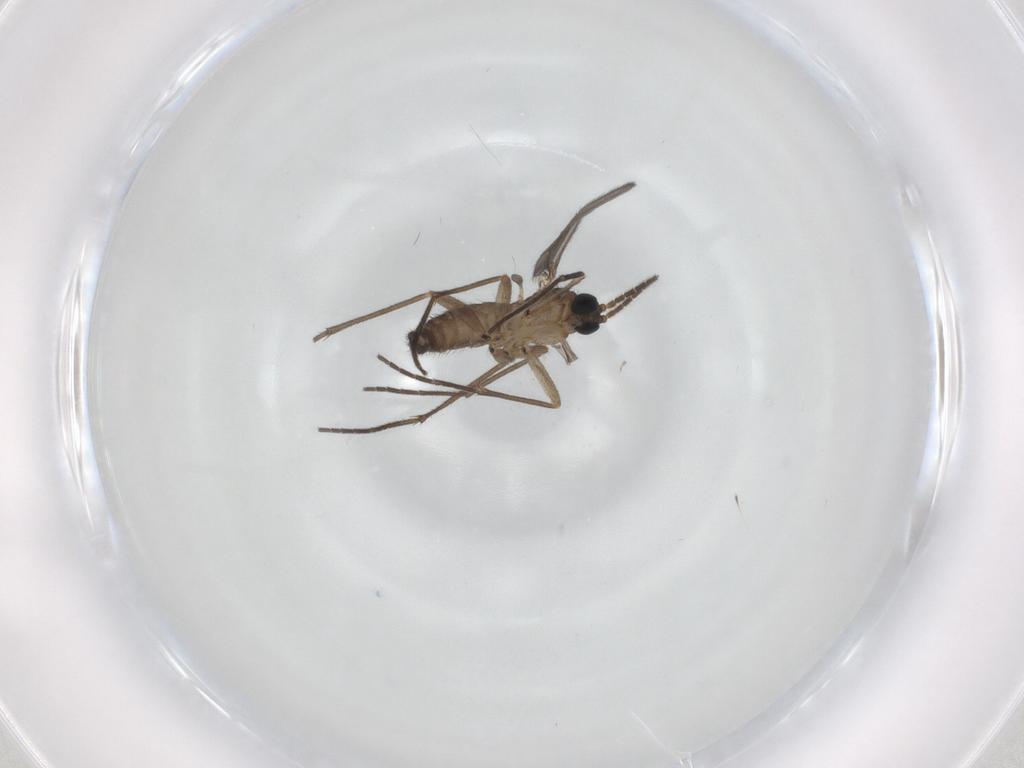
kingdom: Animalia
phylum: Arthropoda
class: Insecta
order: Diptera
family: Sciaridae
